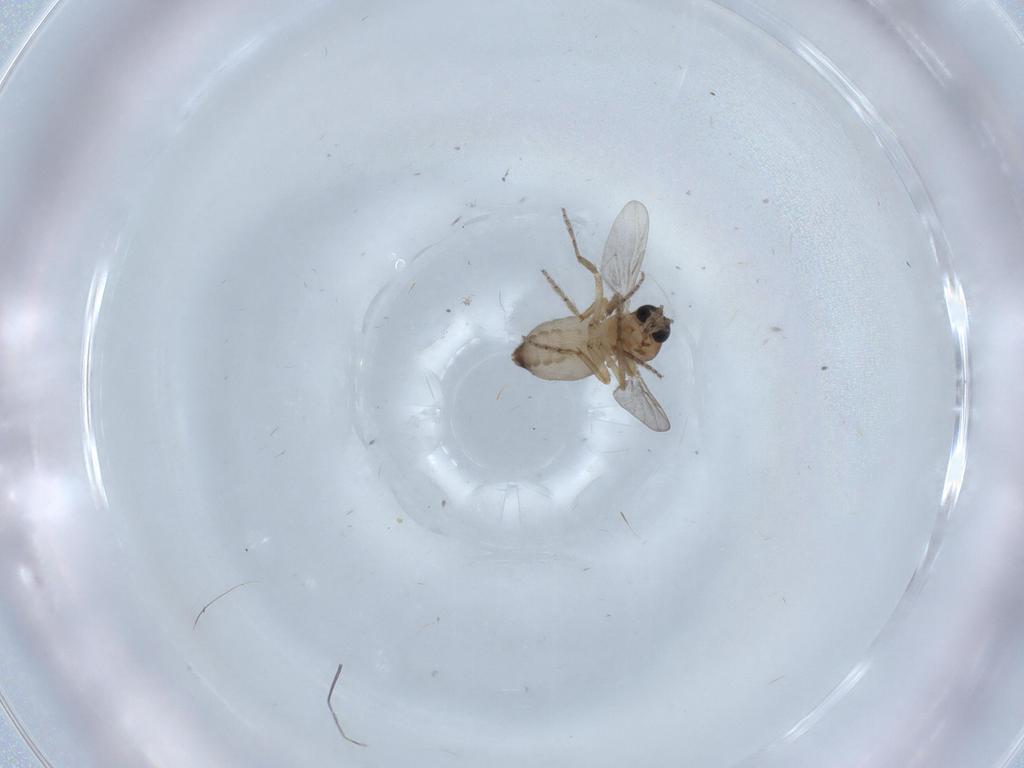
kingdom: Animalia
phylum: Arthropoda
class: Insecta
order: Diptera
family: Ceratopogonidae
